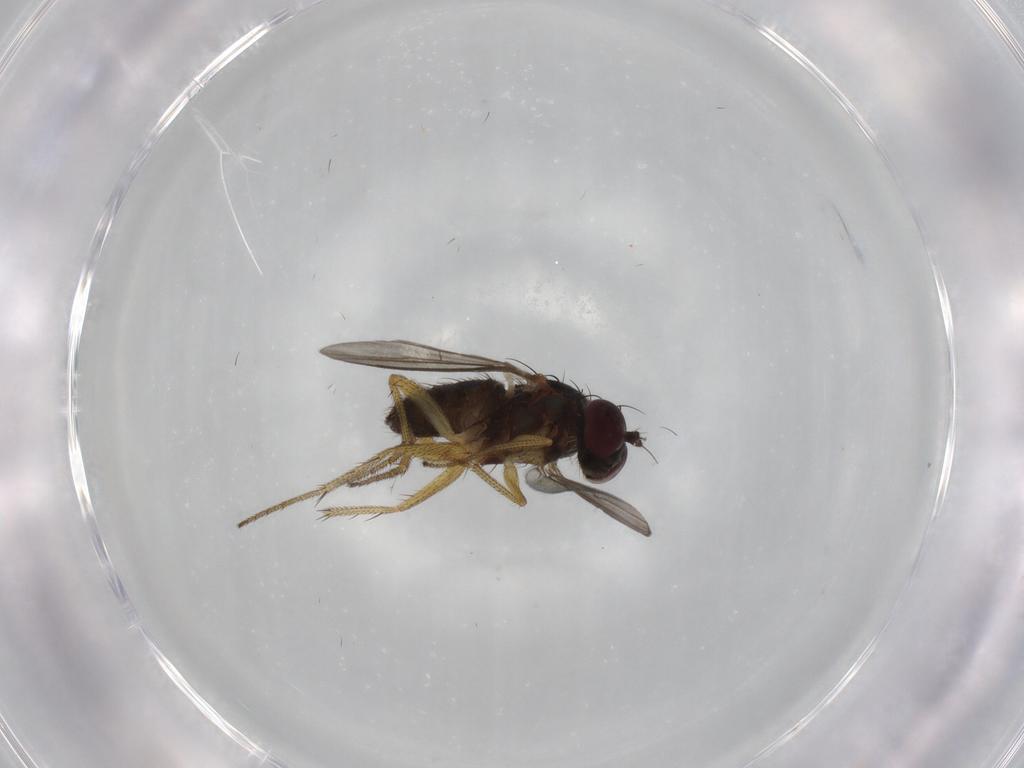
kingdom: Animalia
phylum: Arthropoda
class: Insecta
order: Diptera
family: Dolichopodidae
